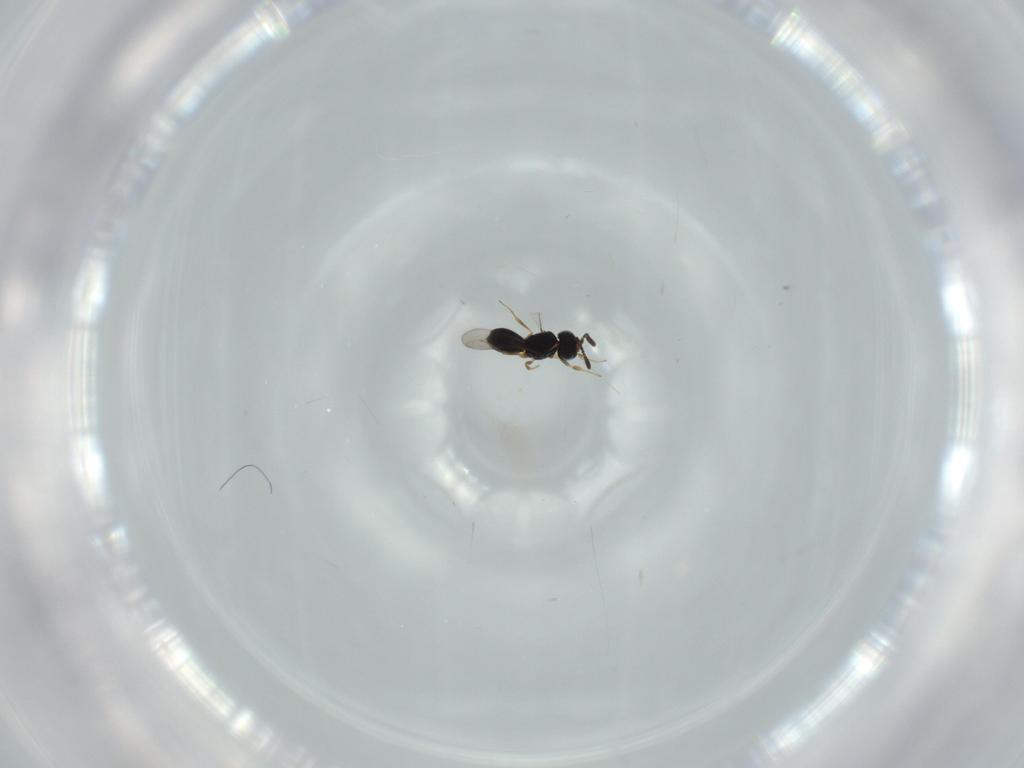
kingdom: Animalia
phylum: Arthropoda
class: Insecta
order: Hymenoptera
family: Scelionidae
